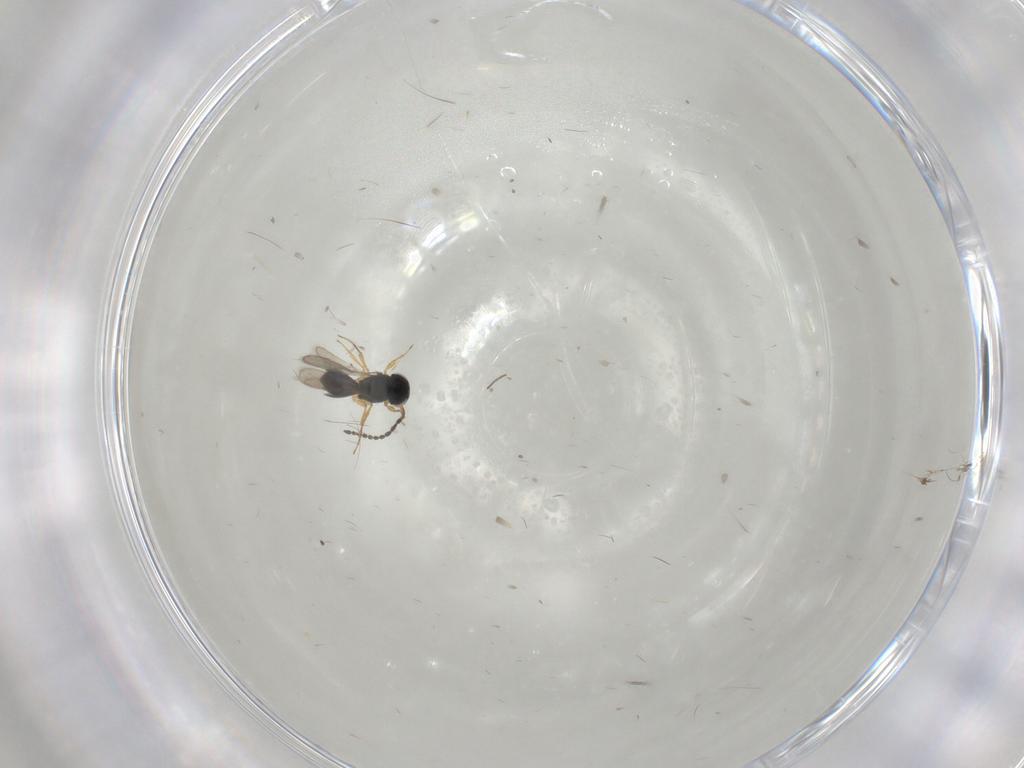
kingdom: Animalia
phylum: Arthropoda
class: Insecta
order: Hymenoptera
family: Scelionidae
